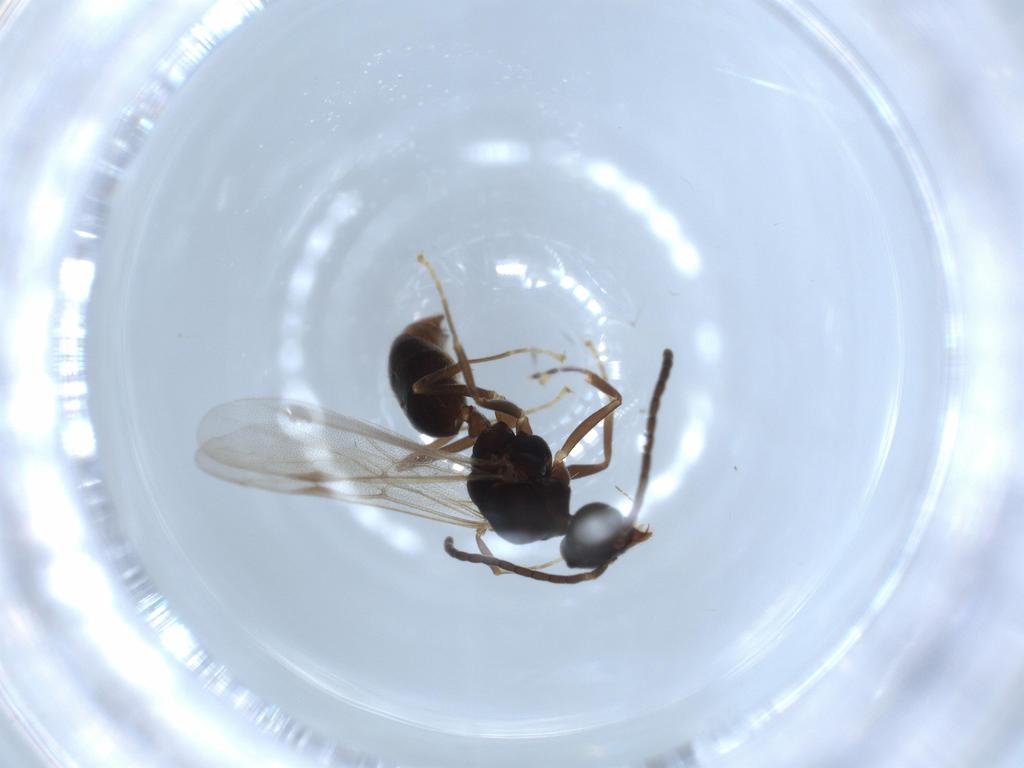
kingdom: Animalia
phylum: Arthropoda
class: Insecta
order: Hymenoptera
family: Formicidae
